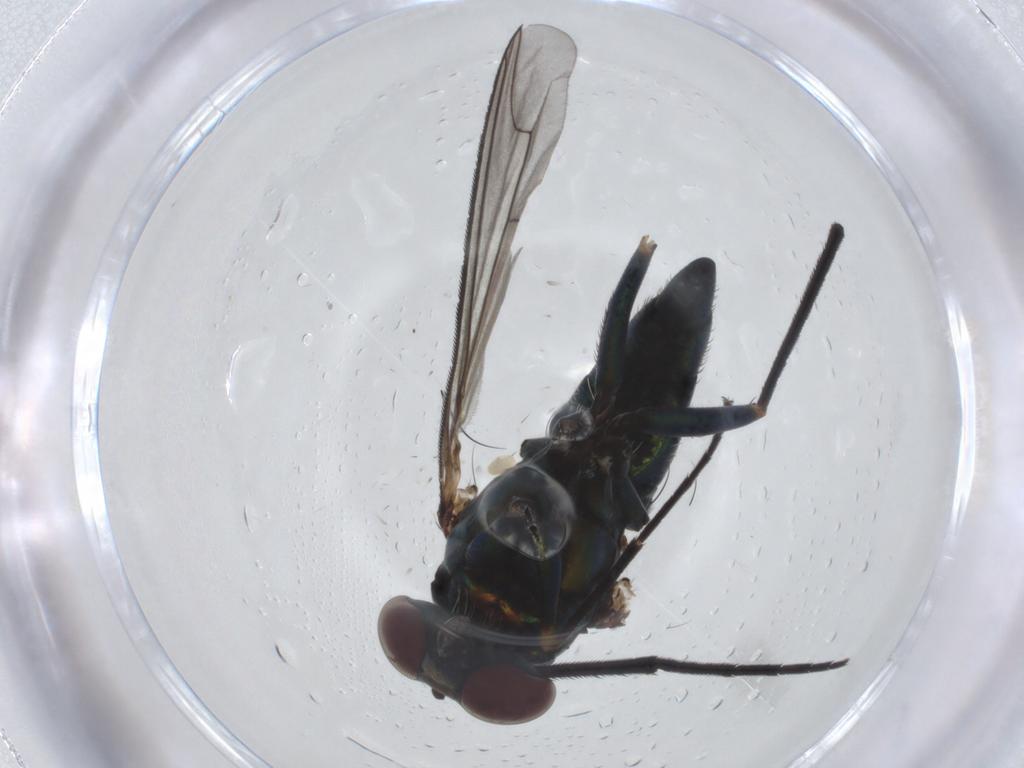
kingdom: Animalia
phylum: Arthropoda
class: Insecta
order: Diptera
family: Dolichopodidae
